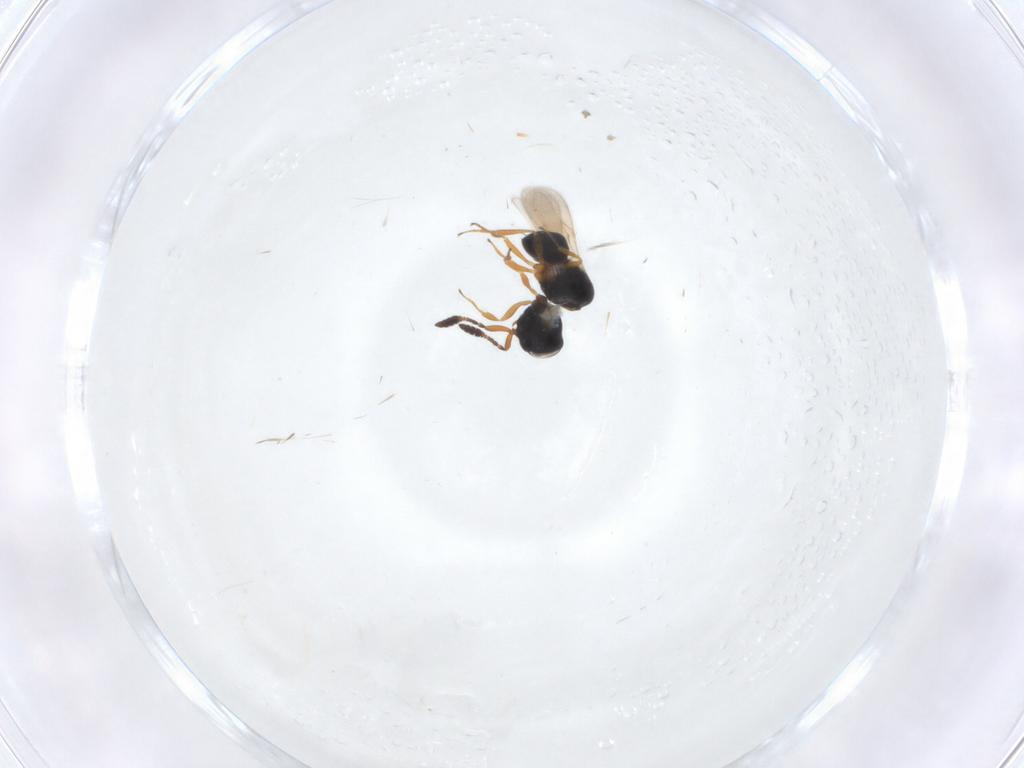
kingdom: Animalia
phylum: Arthropoda
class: Insecta
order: Hymenoptera
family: Scelionidae
